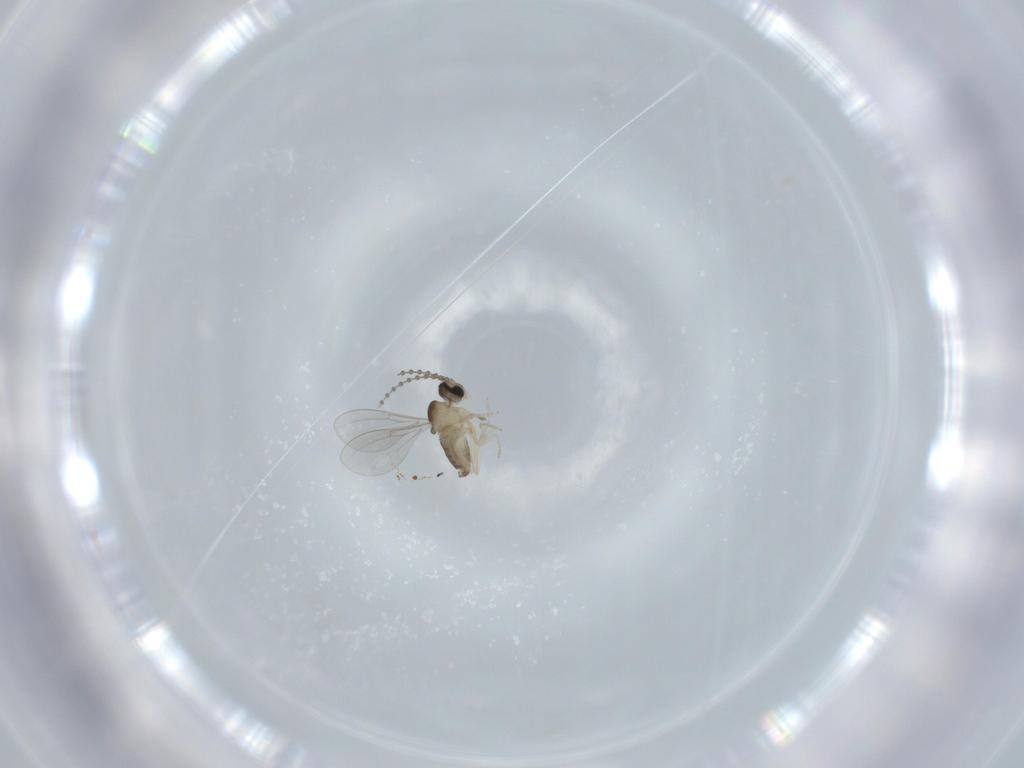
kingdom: Animalia
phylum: Arthropoda
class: Insecta
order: Diptera
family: Cecidomyiidae
